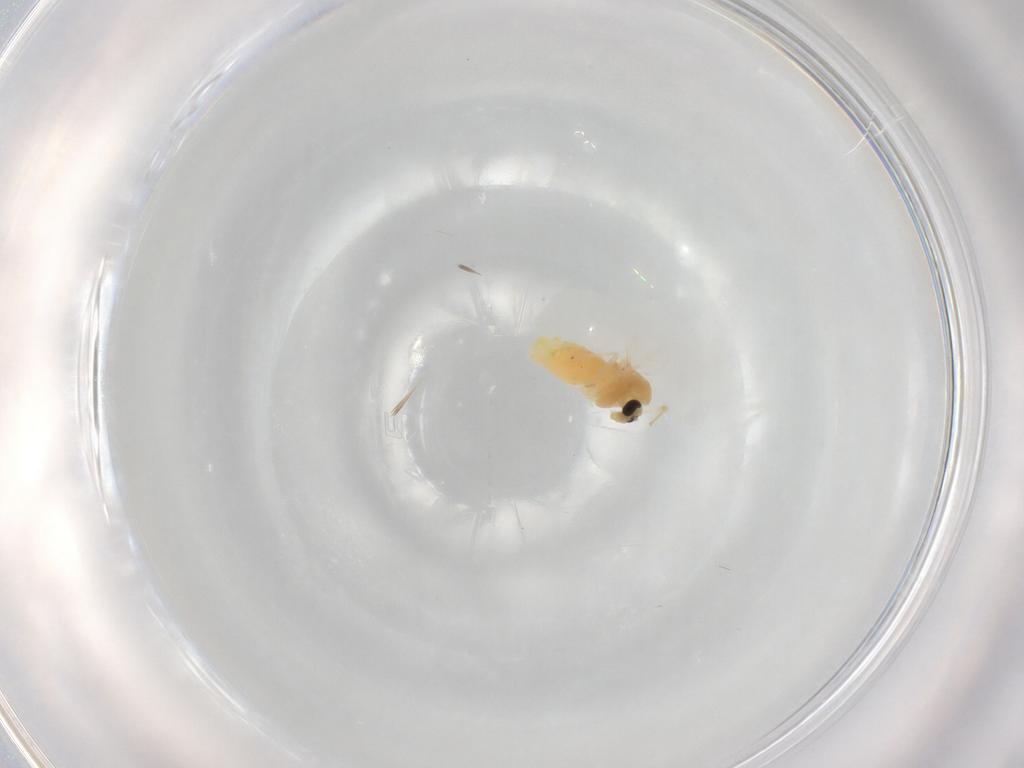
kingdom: Animalia
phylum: Arthropoda
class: Insecta
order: Diptera
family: Chironomidae
